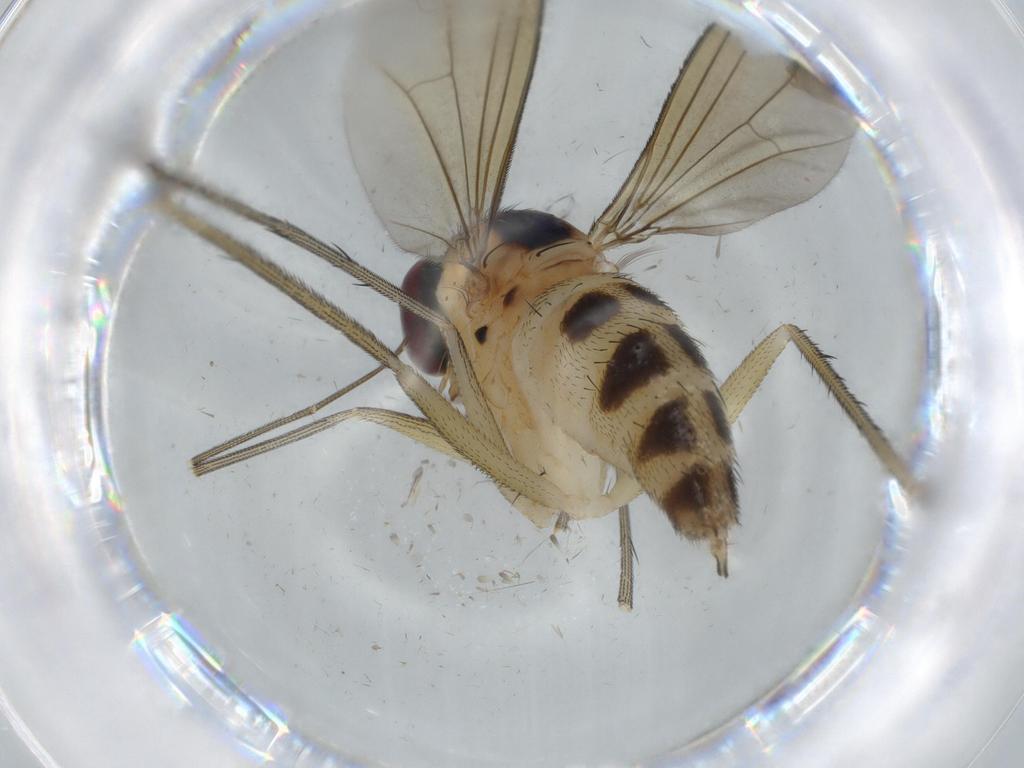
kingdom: Animalia
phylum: Arthropoda
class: Insecta
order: Diptera
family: Dolichopodidae
